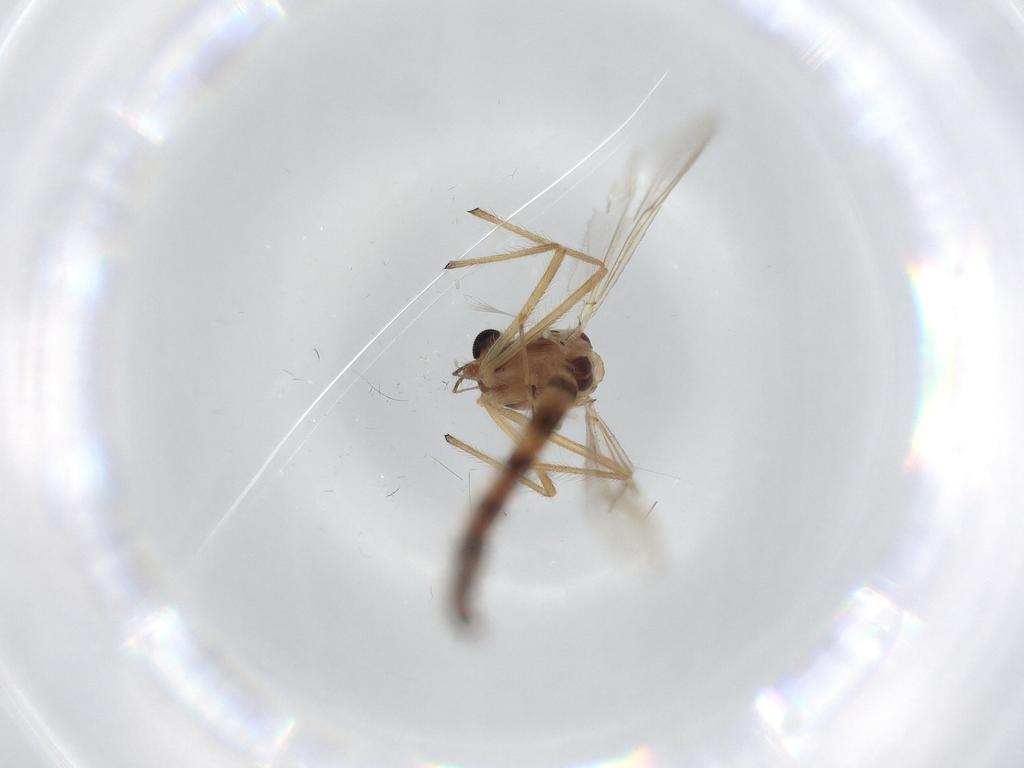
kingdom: Animalia
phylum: Arthropoda
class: Insecta
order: Diptera
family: Chironomidae
